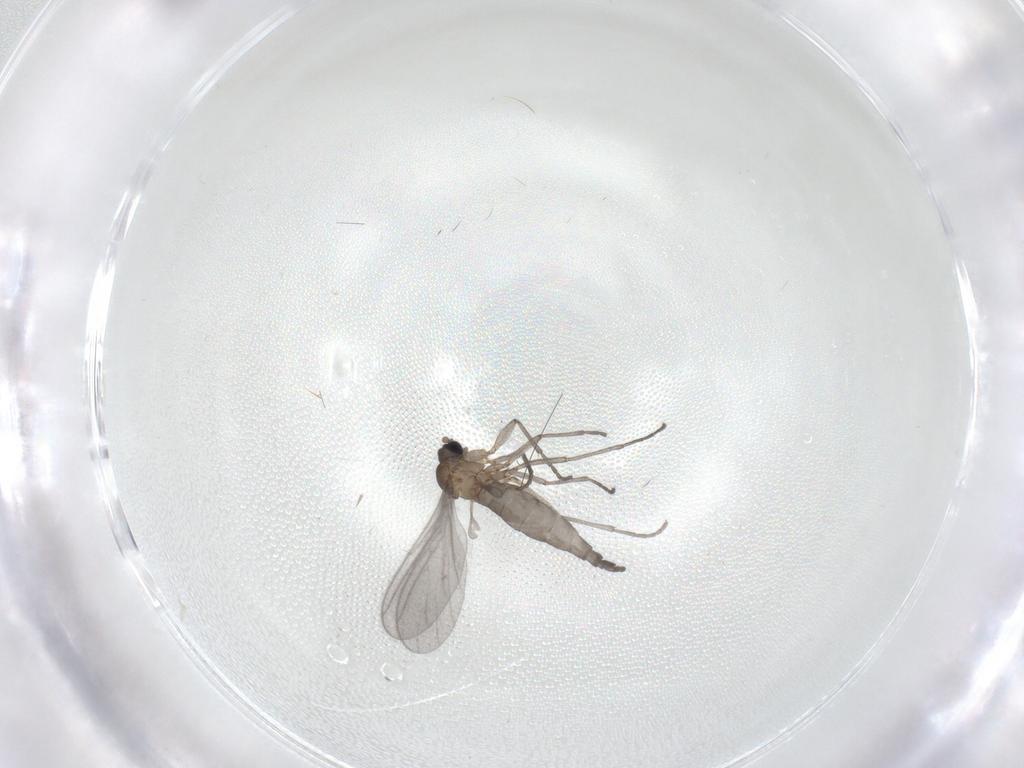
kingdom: Animalia
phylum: Arthropoda
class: Insecta
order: Diptera
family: Sciaridae
